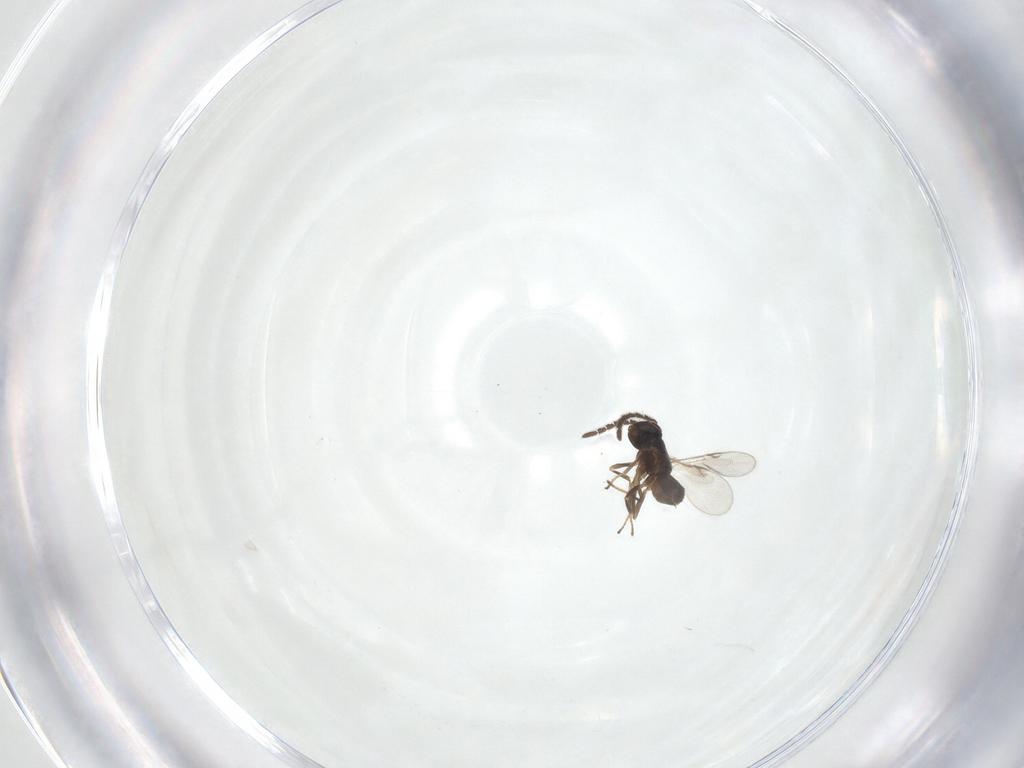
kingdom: Animalia
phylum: Arthropoda
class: Insecta
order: Hymenoptera
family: Encyrtidae
